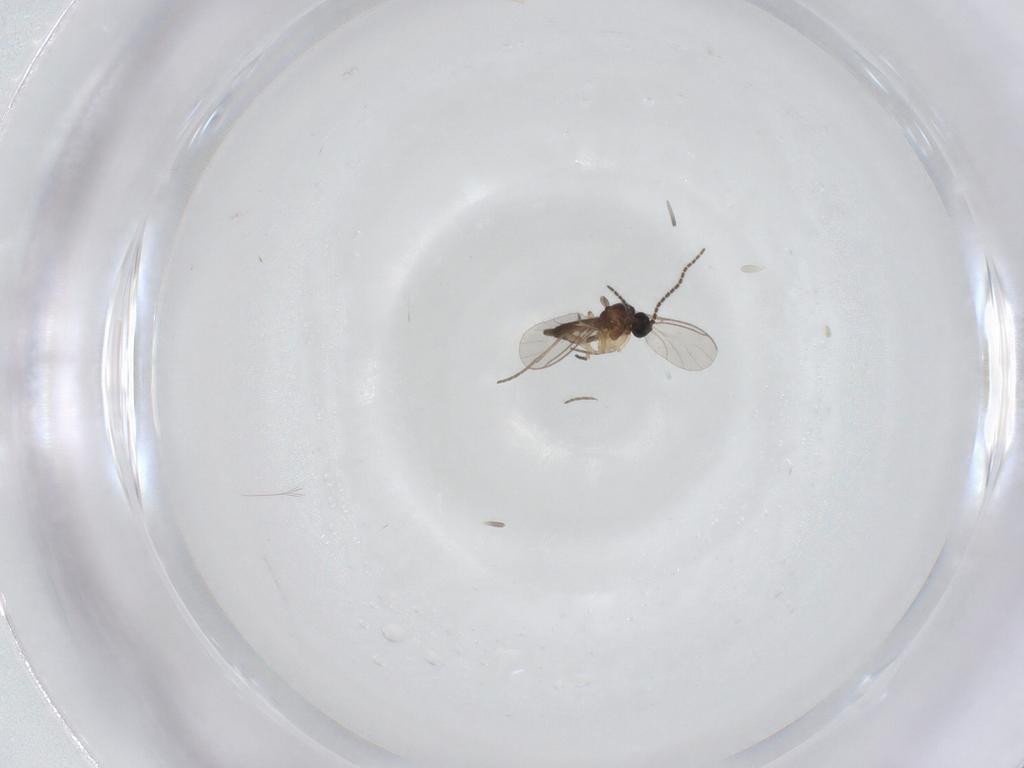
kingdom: Animalia
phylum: Arthropoda
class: Insecta
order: Diptera
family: Sciaridae
